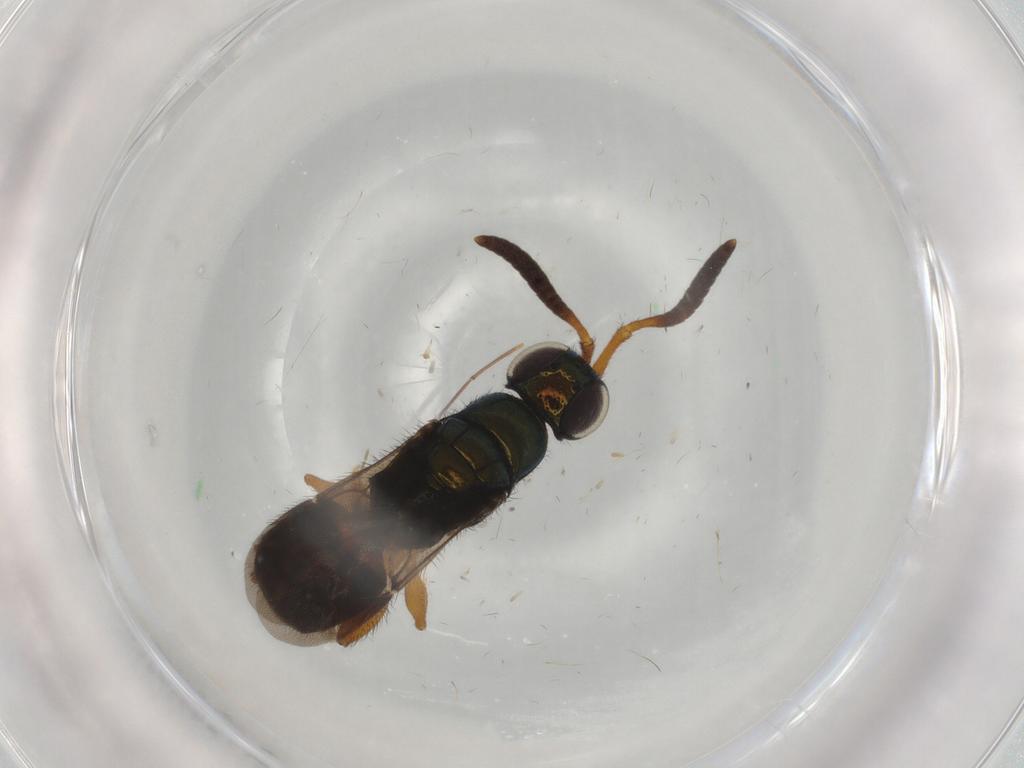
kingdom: Animalia
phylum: Arthropoda
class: Insecta
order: Hymenoptera
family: Chrysididae
